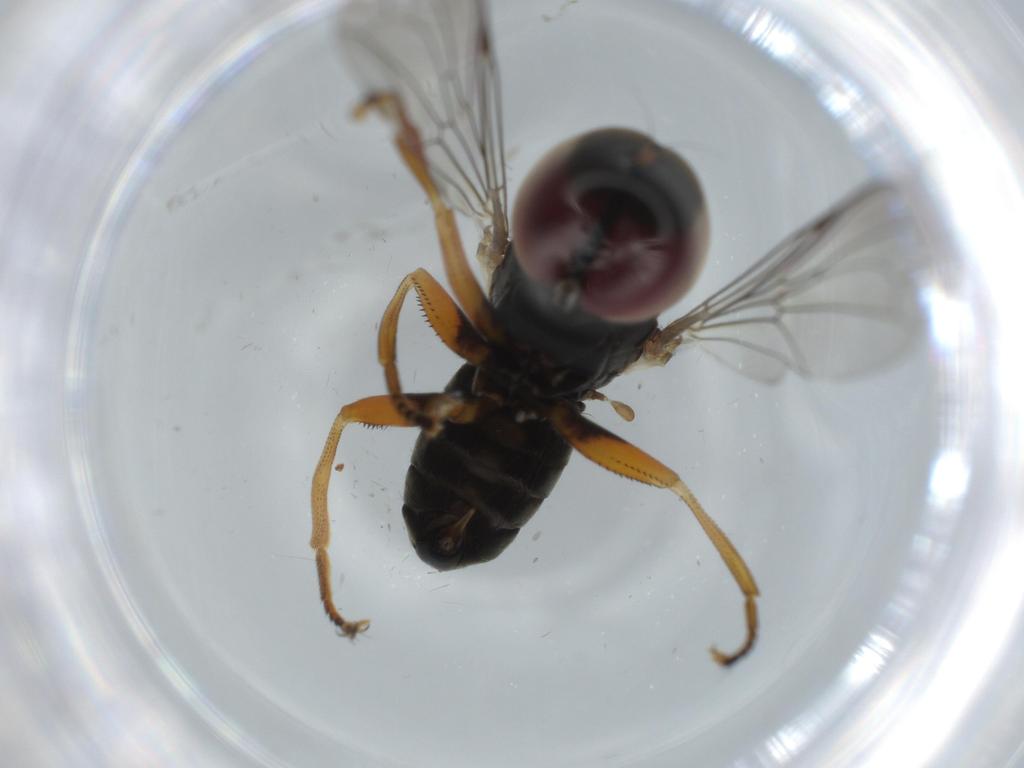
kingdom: Animalia
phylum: Arthropoda
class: Insecta
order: Diptera
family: Pipunculidae
